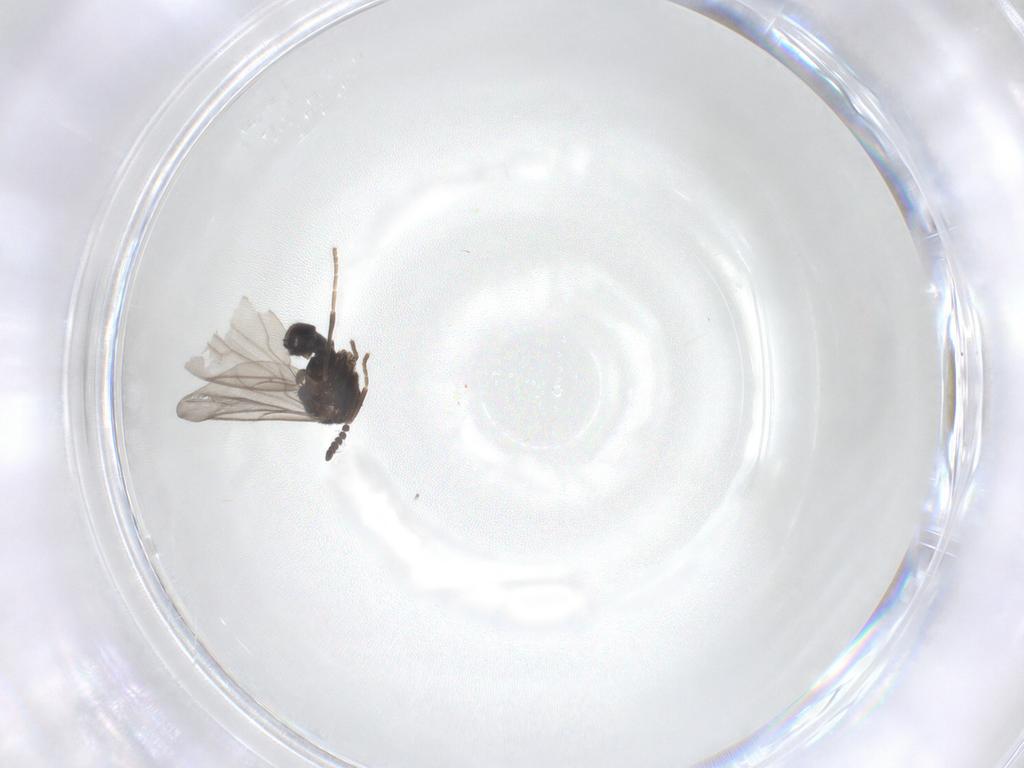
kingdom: Animalia
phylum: Arthropoda
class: Insecta
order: Diptera
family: Scatopsidae
